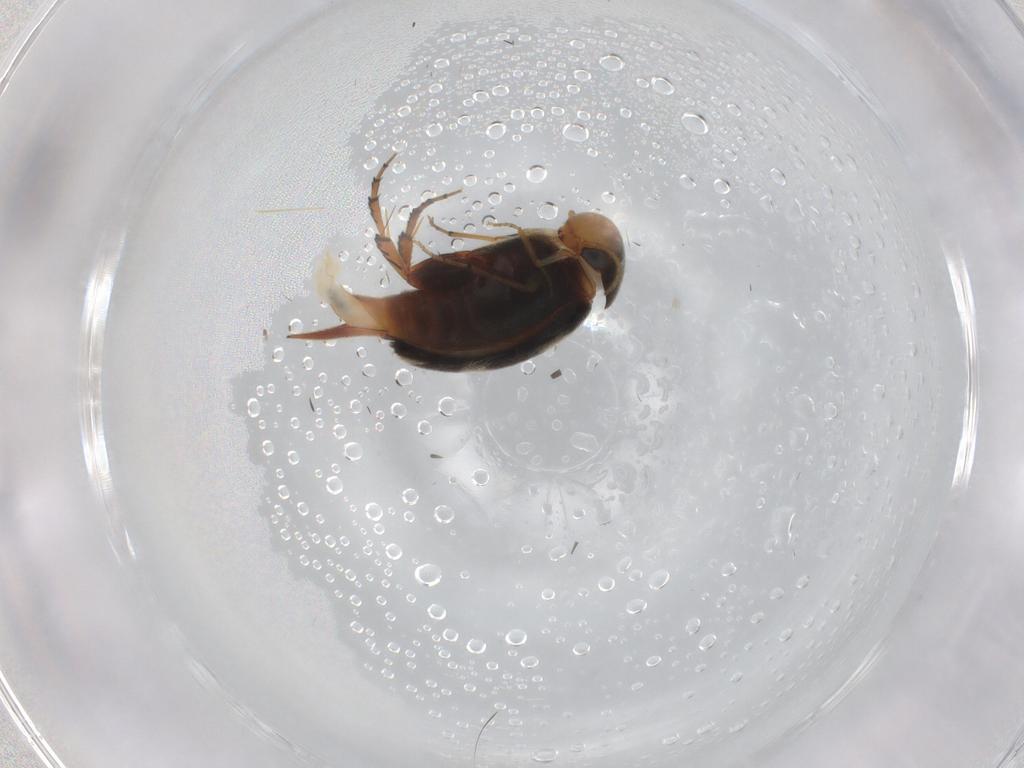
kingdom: Animalia
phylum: Arthropoda
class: Insecta
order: Coleoptera
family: Mordellidae
